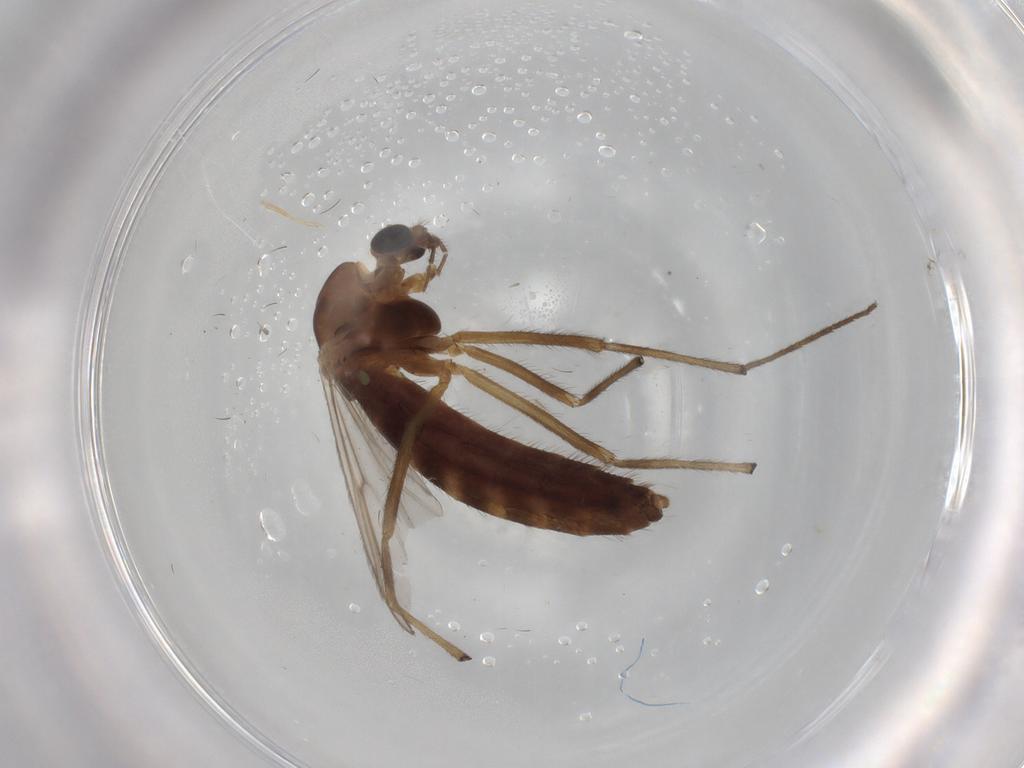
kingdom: Animalia
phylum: Arthropoda
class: Insecta
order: Diptera
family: Chironomidae
